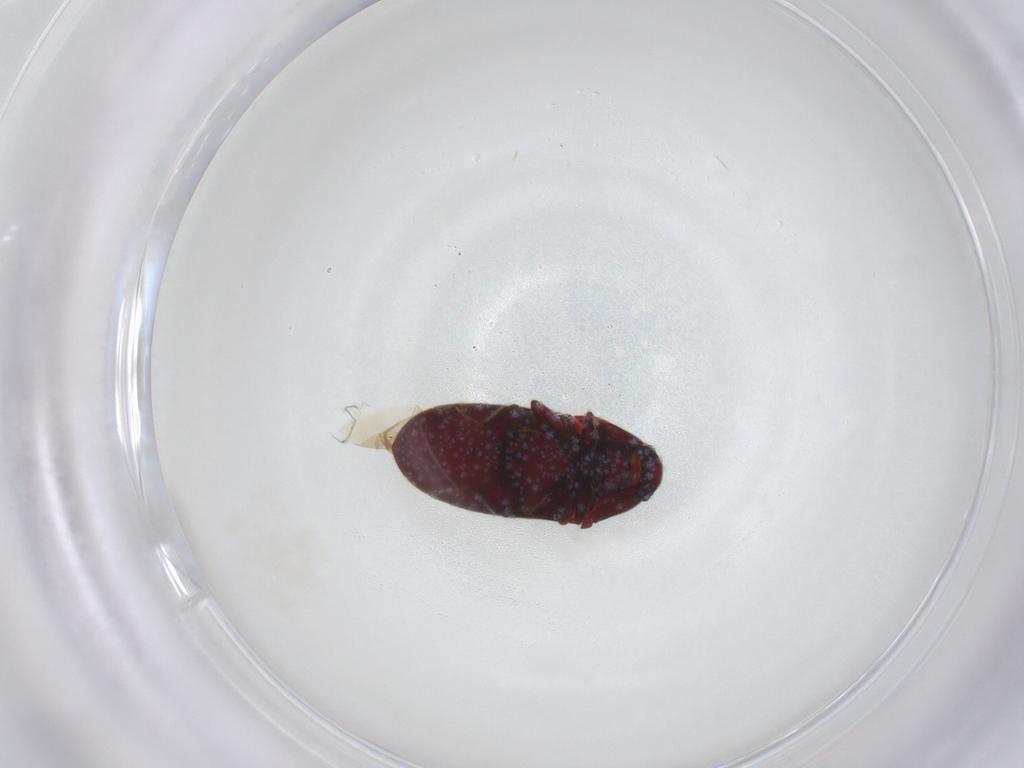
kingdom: Animalia
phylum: Arthropoda
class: Insecta
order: Coleoptera
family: Throscidae
